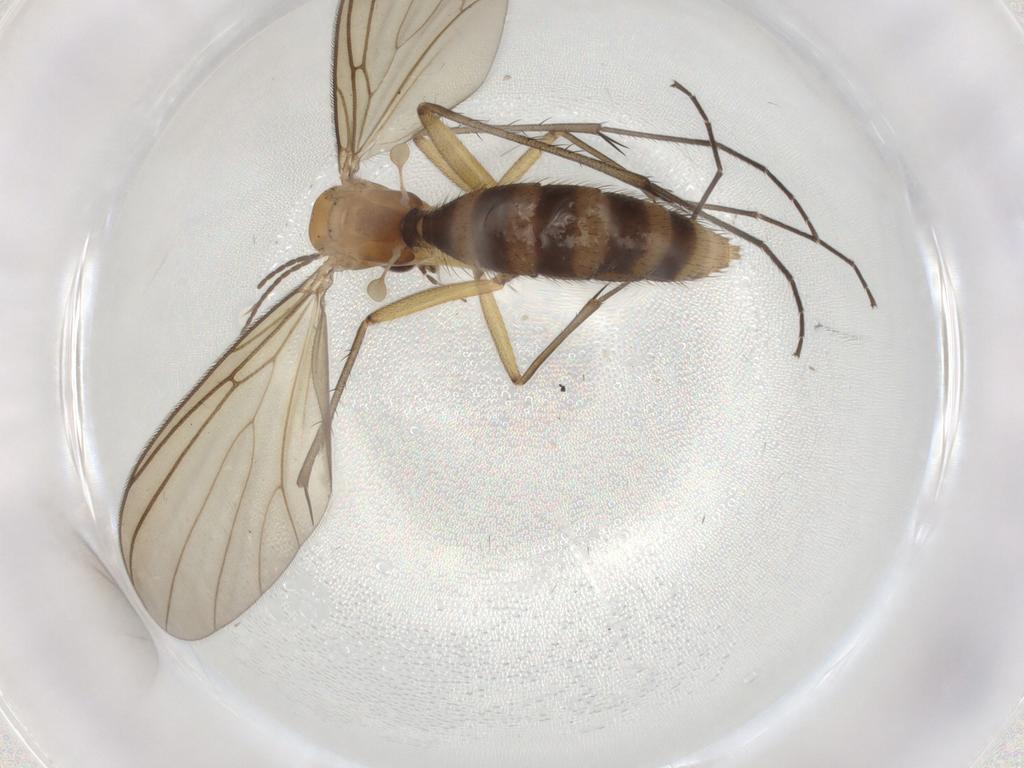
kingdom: Animalia
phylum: Arthropoda
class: Insecta
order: Diptera
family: Mycetophilidae
